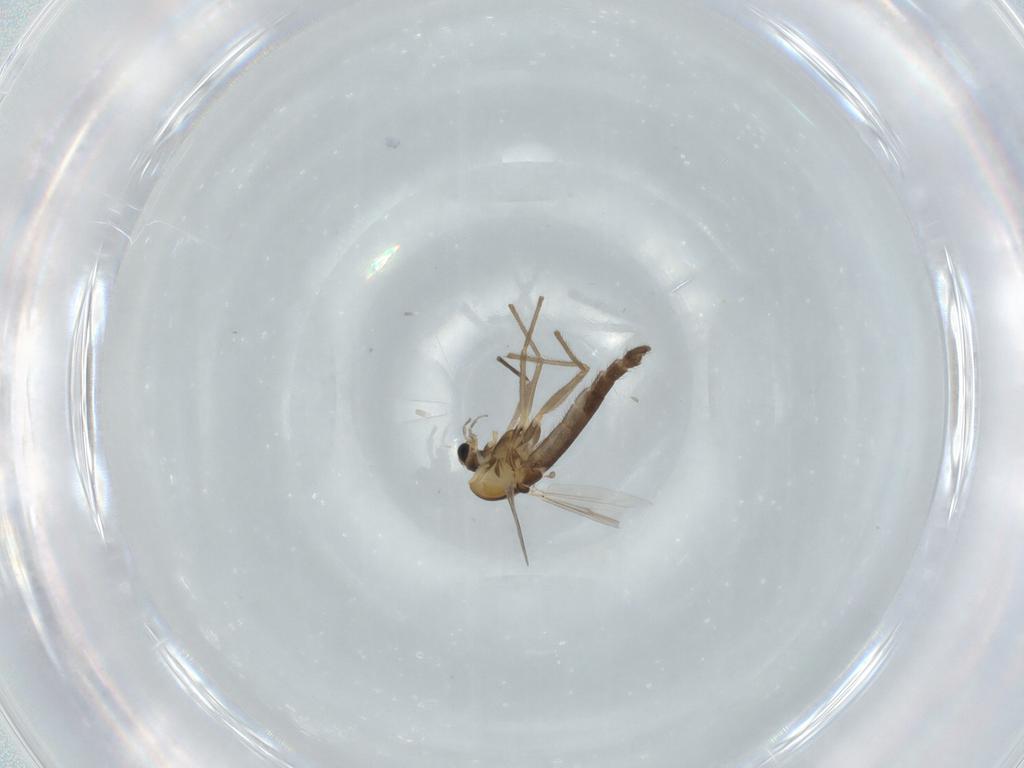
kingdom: Animalia
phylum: Arthropoda
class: Insecta
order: Diptera
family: Chironomidae
